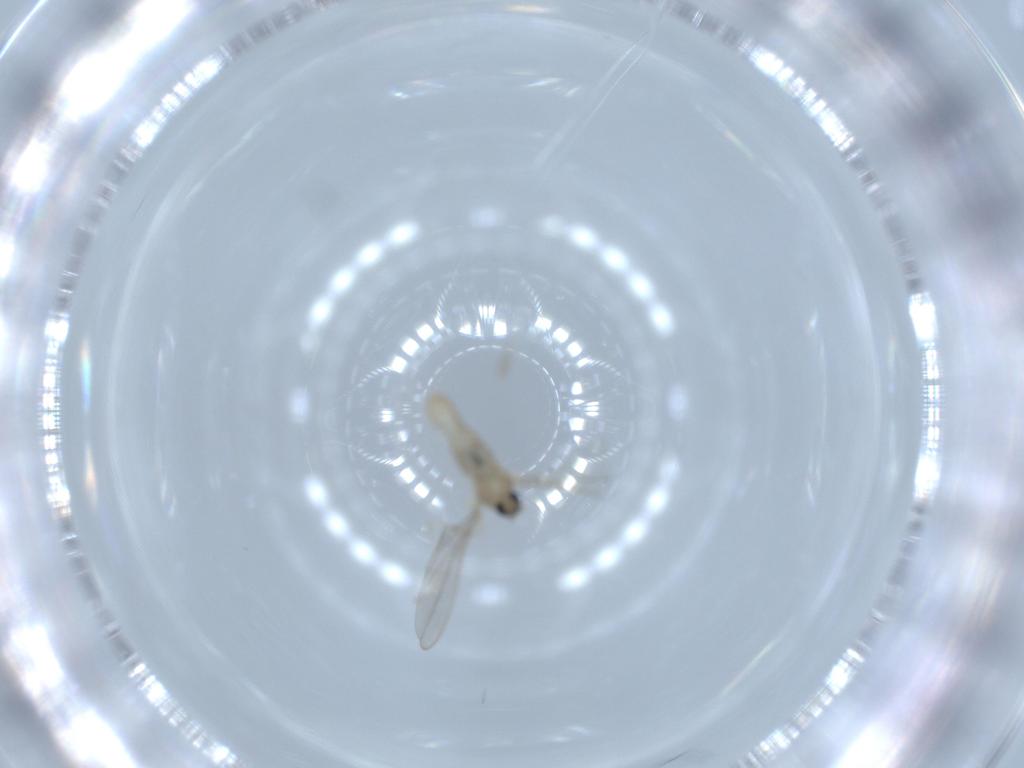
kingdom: Animalia
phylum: Arthropoda
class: Insecta
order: Diptera
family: Cecidomyiidae
